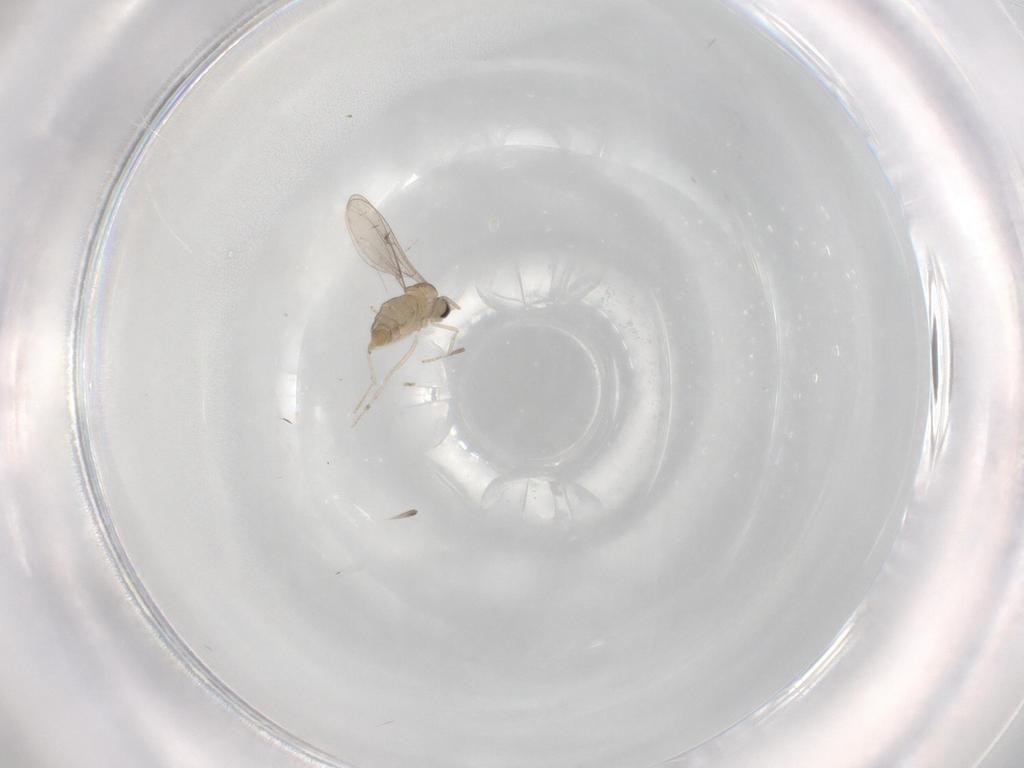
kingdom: Animalia
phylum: Arthropoda
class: Insecta
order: Diptera
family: Cecidomyiidae
